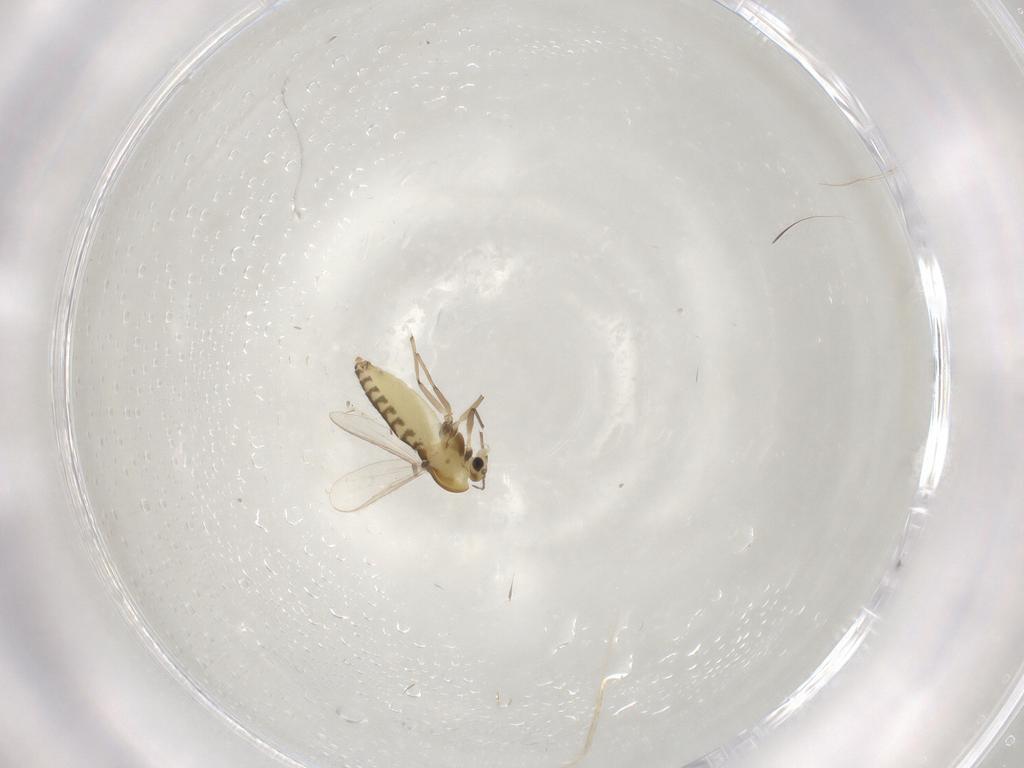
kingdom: Animalia
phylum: Arthropoda
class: Insecta
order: Diptera
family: Chironomidae
